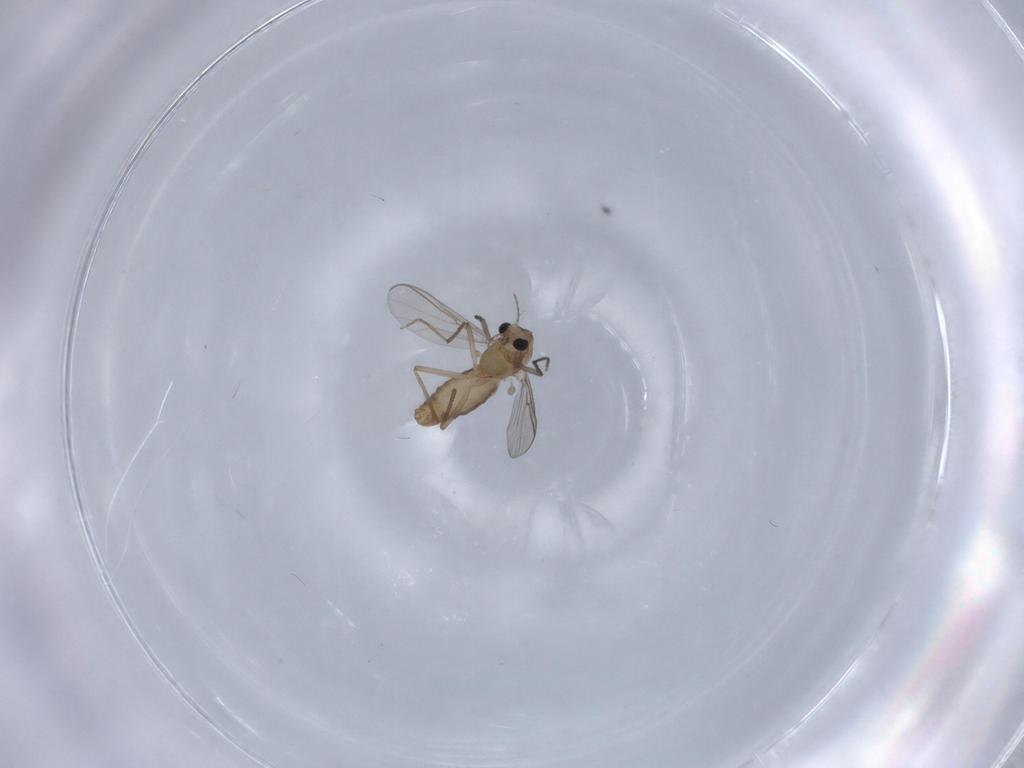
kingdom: Animalia
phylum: Arthropoda
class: Insecta
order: Diptera
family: Chironomidae
